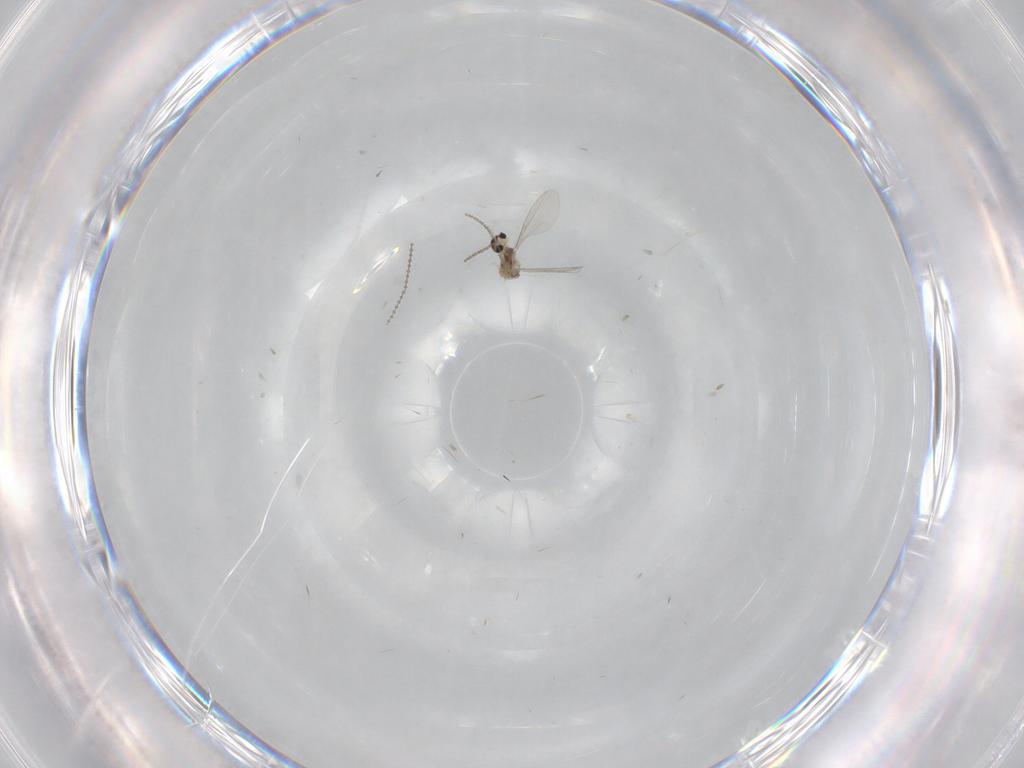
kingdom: Animalia
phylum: Arthropoda
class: Insecta
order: Diptera
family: Cecidomyiidae
